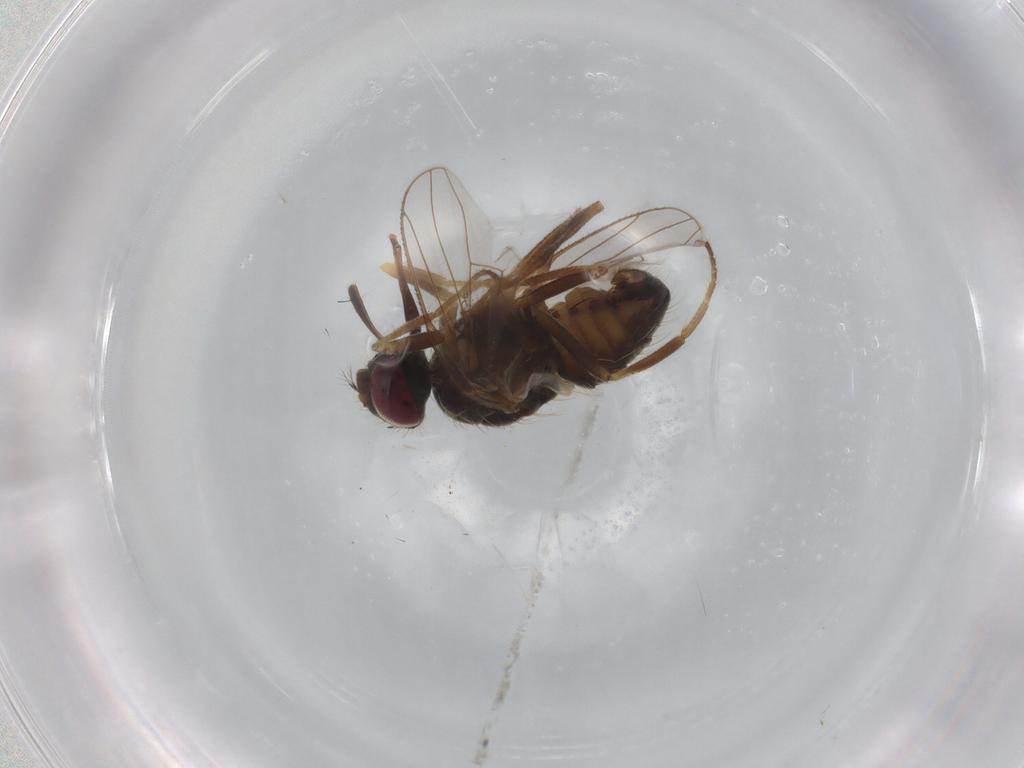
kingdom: Animalia
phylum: Arthropoda
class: Insecta
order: Diptera
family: Muscidae
